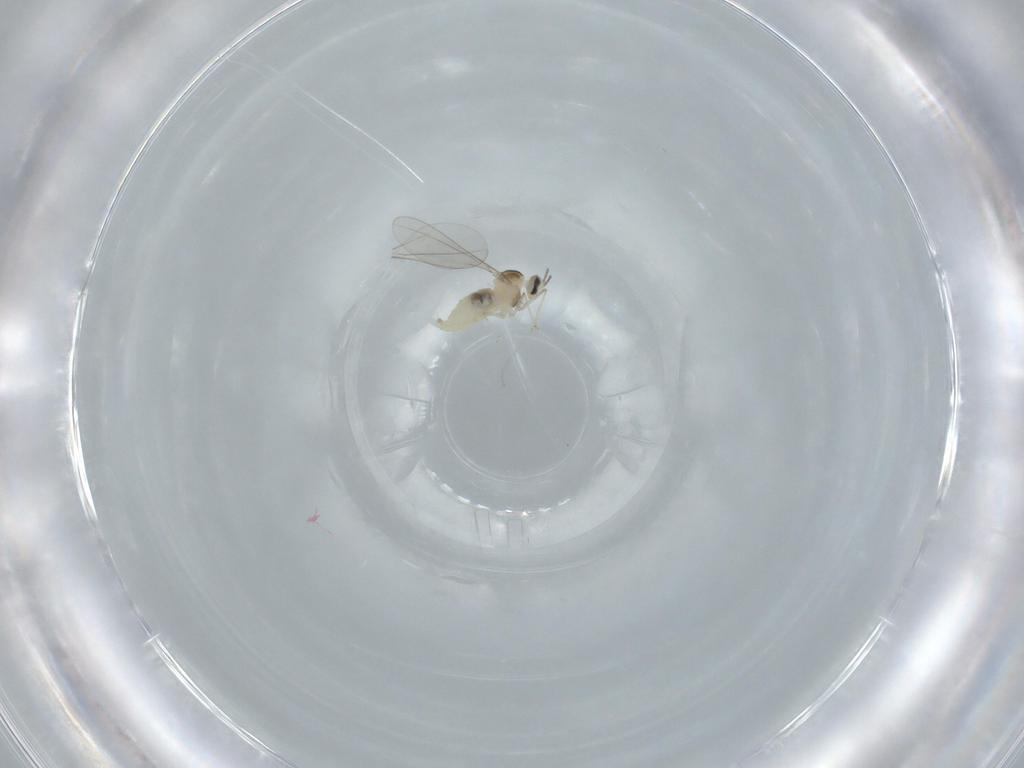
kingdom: Animalia
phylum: Arthropoda
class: Insecta
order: Diptera
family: Cecidomyiidae
